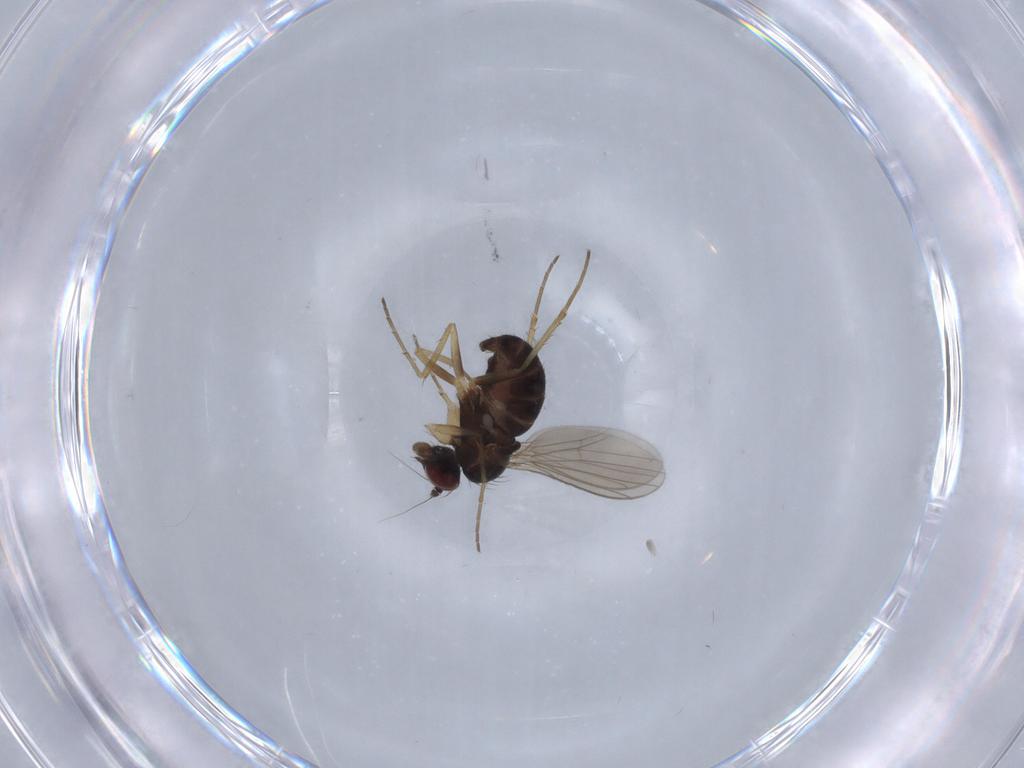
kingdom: Animalia
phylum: Arthropoda
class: Insecta
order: Diptera
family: Dolichopodidae
